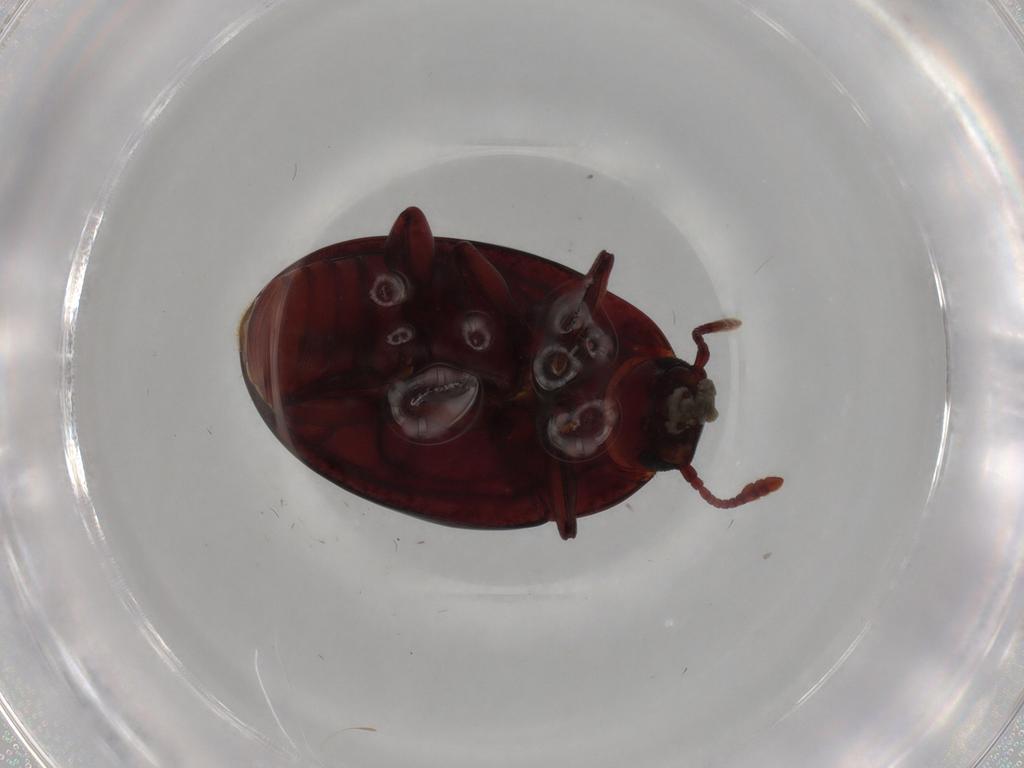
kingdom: Animalia
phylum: Arthropoda
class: Insecta
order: Coleoptera
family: Zopheridae
